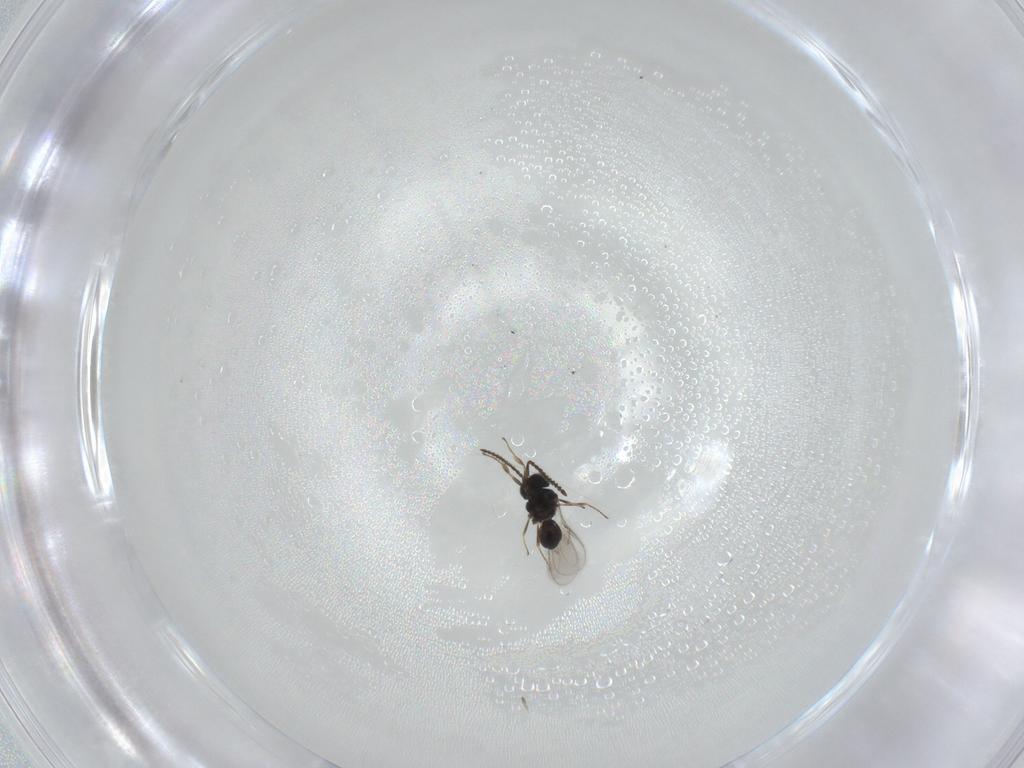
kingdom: Animalia
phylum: Arthropoda
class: Insecta
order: Hymenoptera
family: Scelionidae
